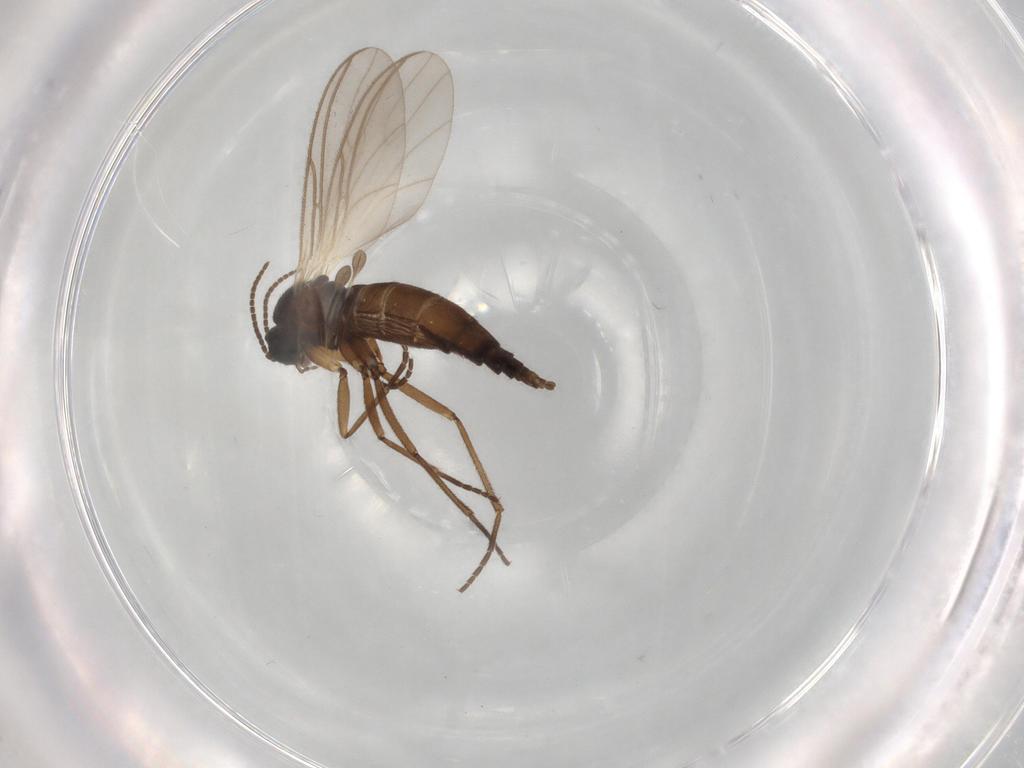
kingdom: Animalia
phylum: Arthropoda
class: Insecta
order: Diptera
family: Sciaridae
